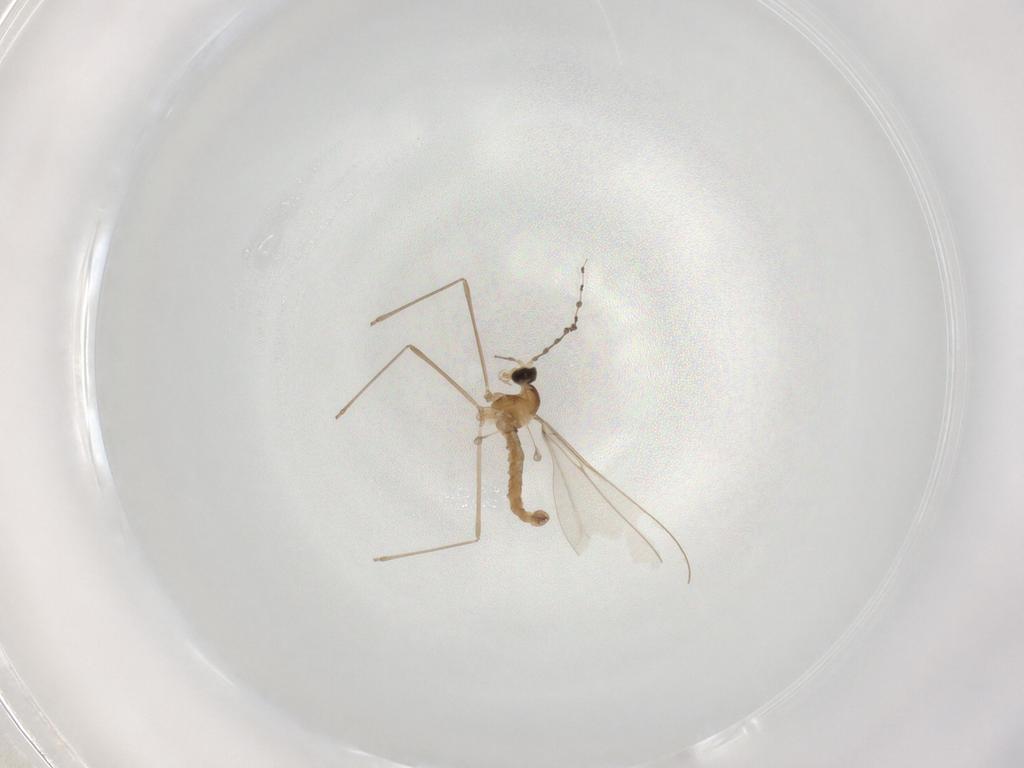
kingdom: Animalia
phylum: Arthropoda
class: Insecta
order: Diptera
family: Cecidomyiidae
